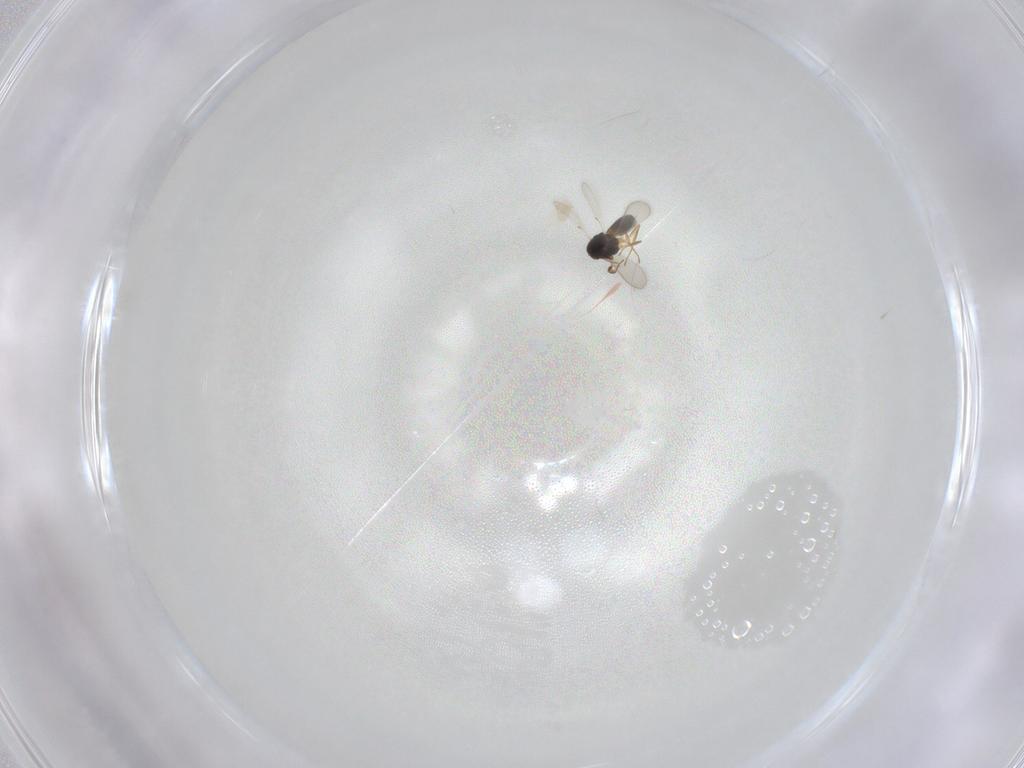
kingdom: Animalia
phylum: Arthropoda
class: Insecta
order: Hymenoptera
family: Scelionidae
